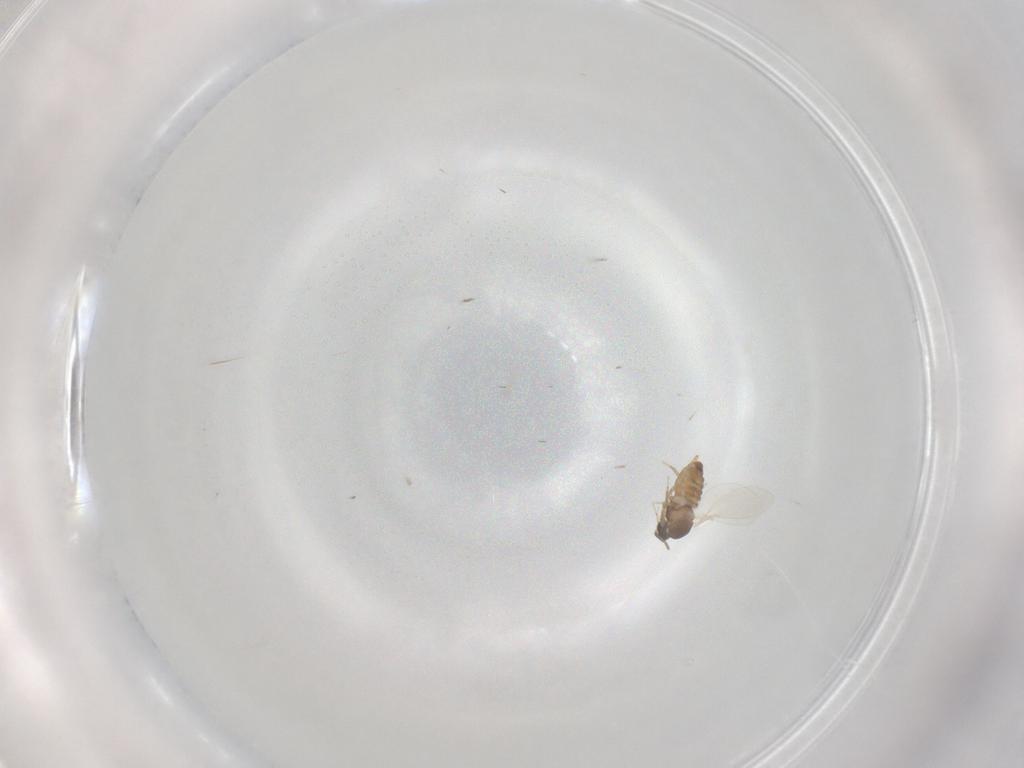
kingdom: Animalia
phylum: Arthropoda
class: Insecta
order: Diptera
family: Cecidomyiidae
